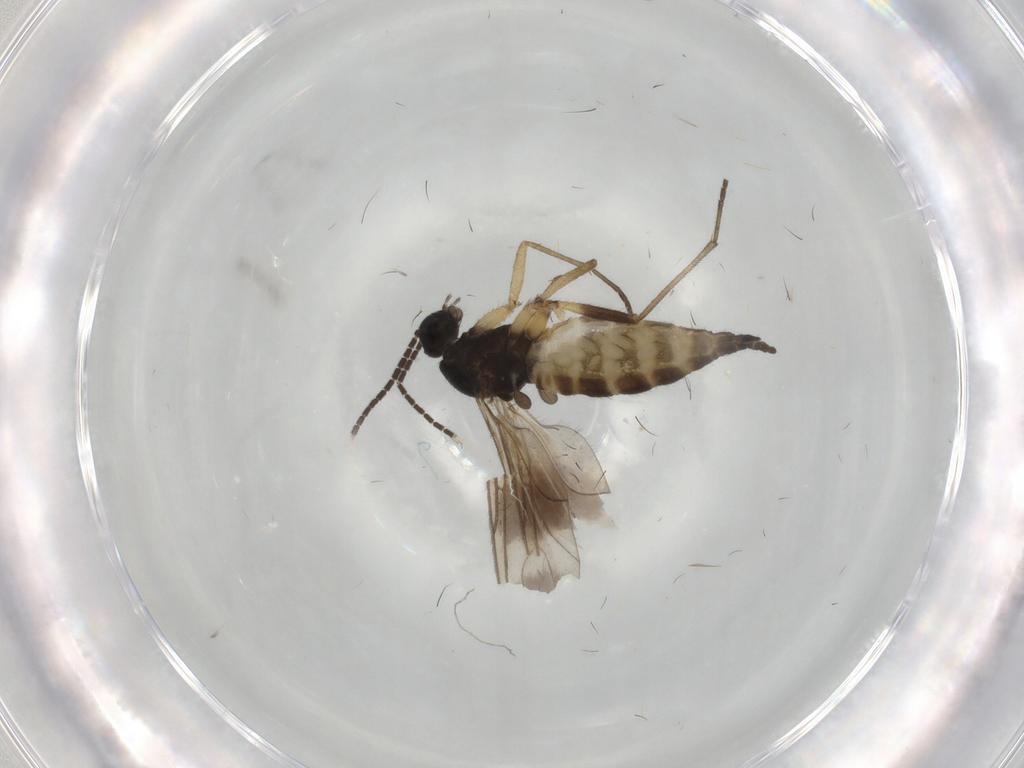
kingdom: Animalia
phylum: Arthropoda
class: Insecta
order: Diptera
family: Sciaridae
